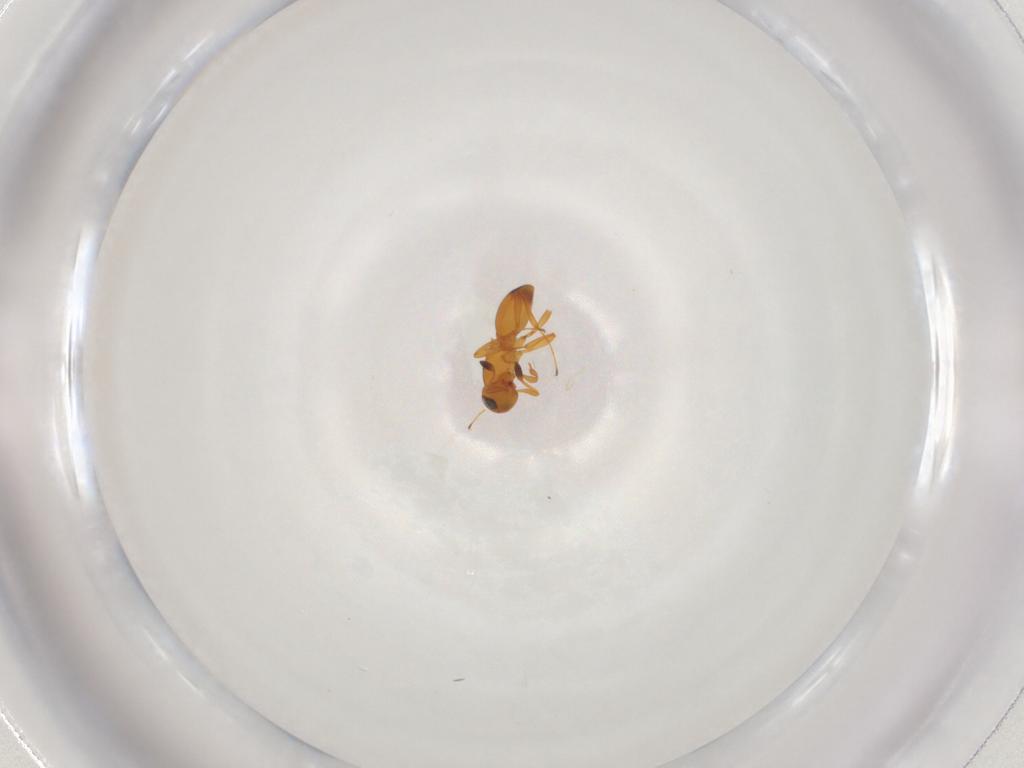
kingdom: Animalia
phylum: Arthropoda
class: Insecta
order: Hymenoptera
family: Platygastridae
